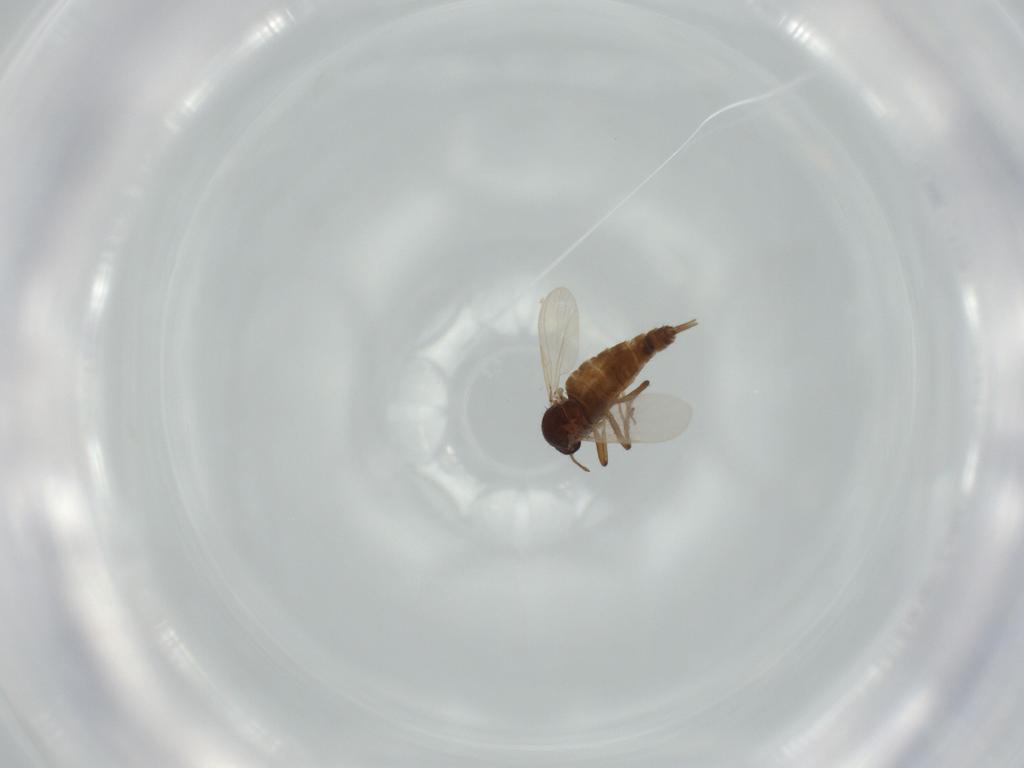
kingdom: Animalia
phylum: Arthropoda
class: Insecta
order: Diptera
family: Ceratopogonidae
